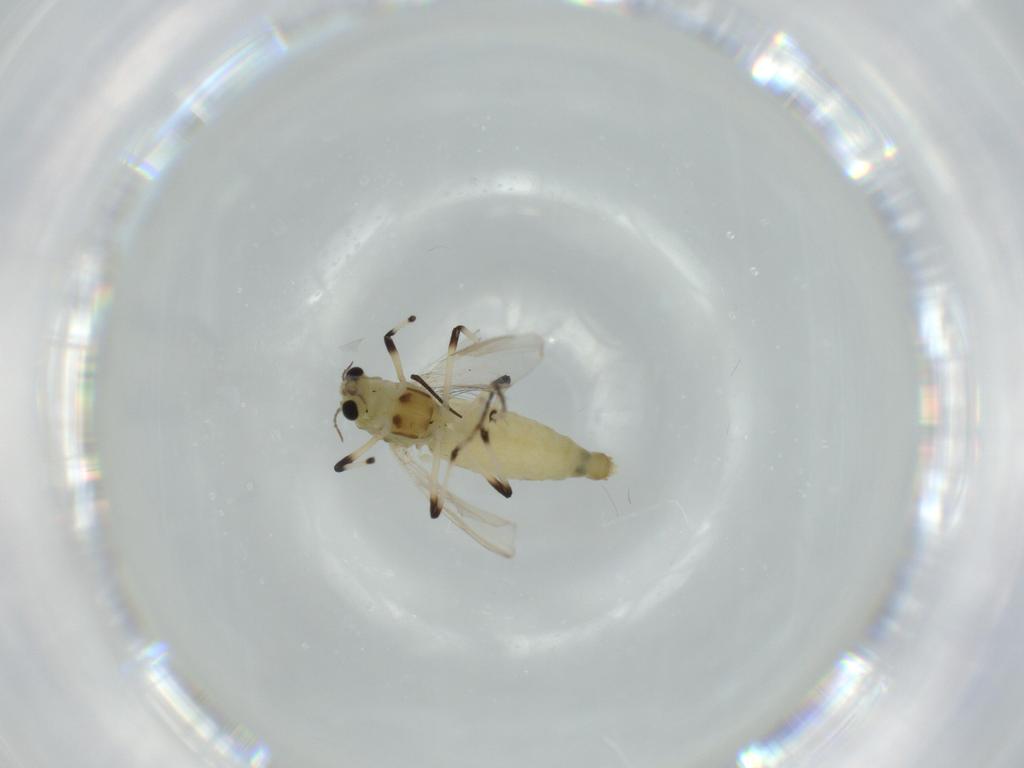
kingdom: Animalia
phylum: Arthropoda
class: Insecta
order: Diptera
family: Chironomidae
